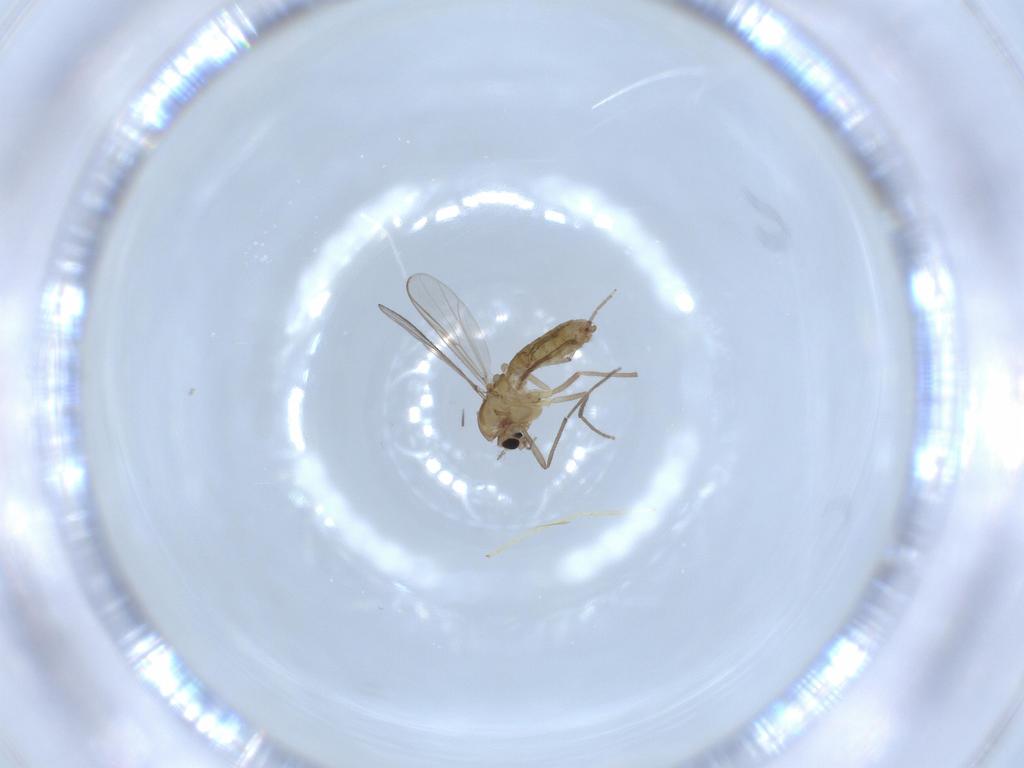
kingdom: Animalia
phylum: Arthropoda
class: Insecta
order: Diptera
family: Chironomidae
